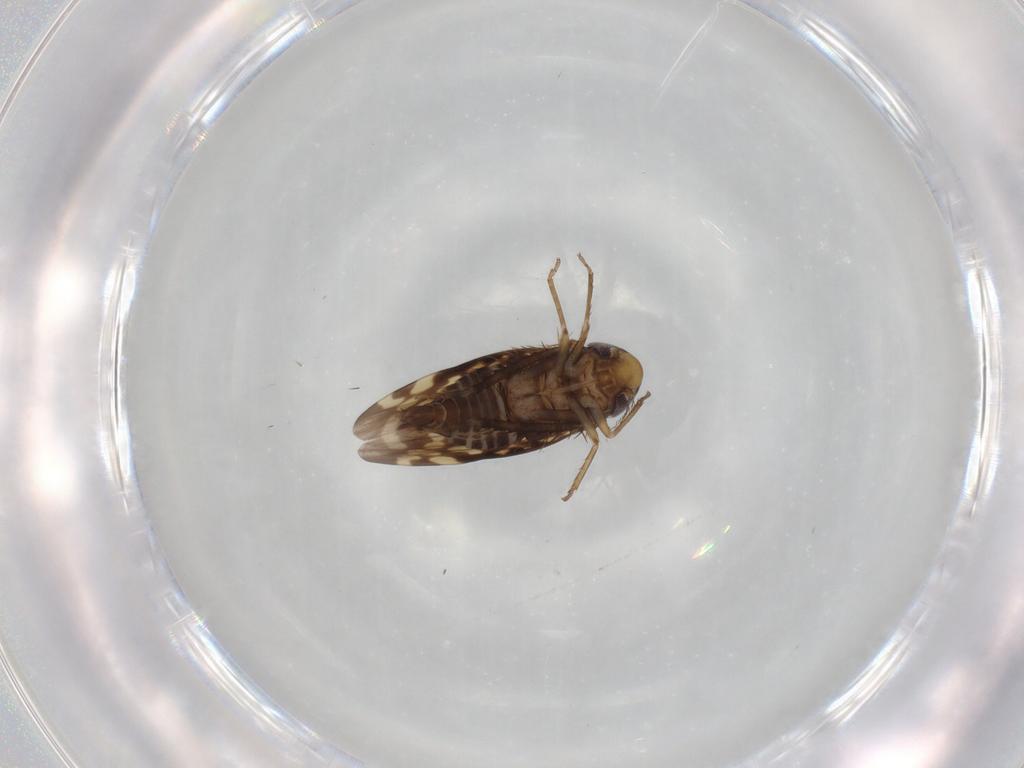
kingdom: Animalia
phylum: Arthropoda
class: Insecta
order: Hemiptera
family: Cicadellidae
